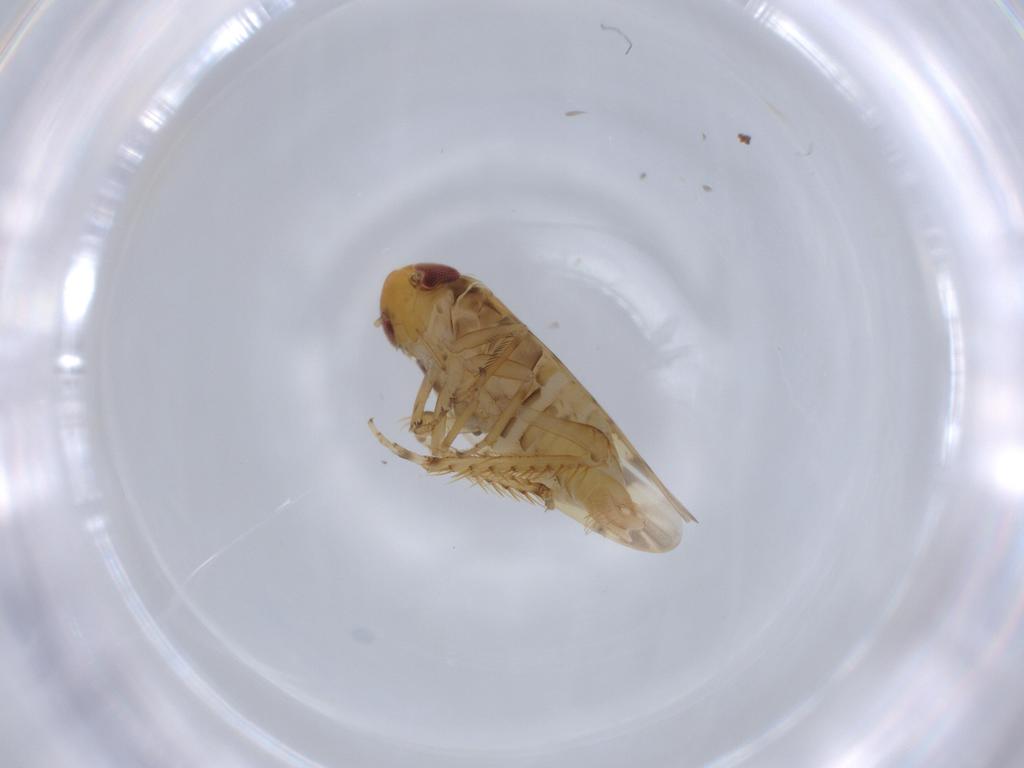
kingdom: Animalia
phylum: Arthropoda
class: Insecta
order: Hemiptera
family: Cicadellidae
